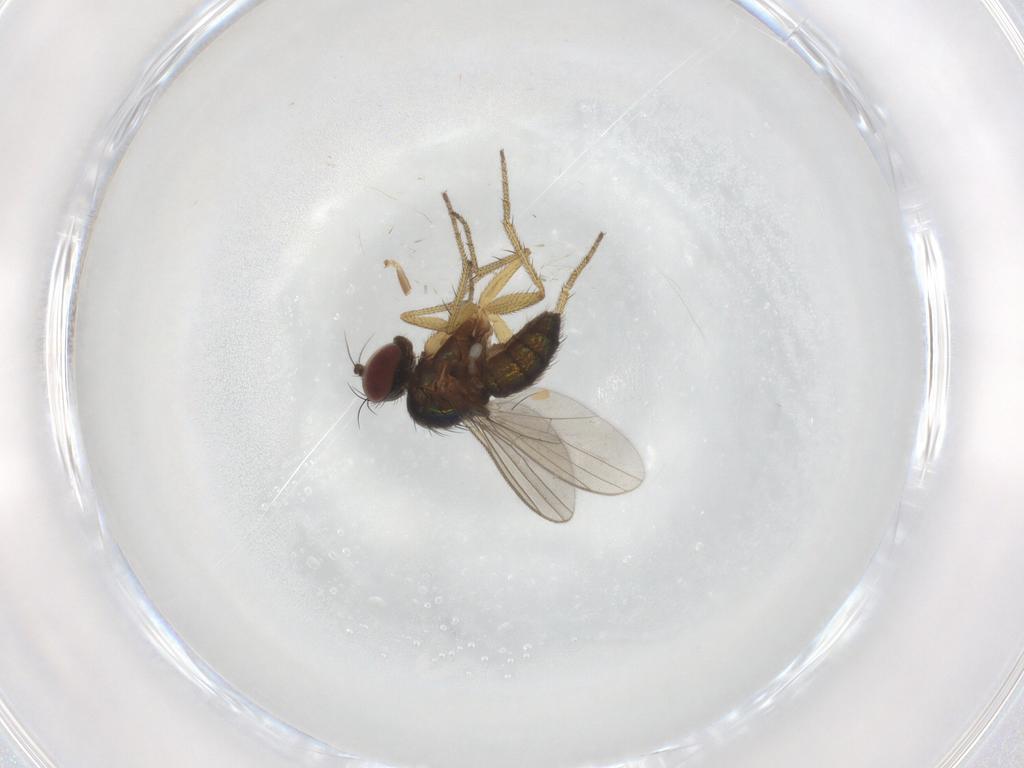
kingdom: Animalia
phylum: Arthropoda
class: Insecta
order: Diptera
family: Dolichopodidae
